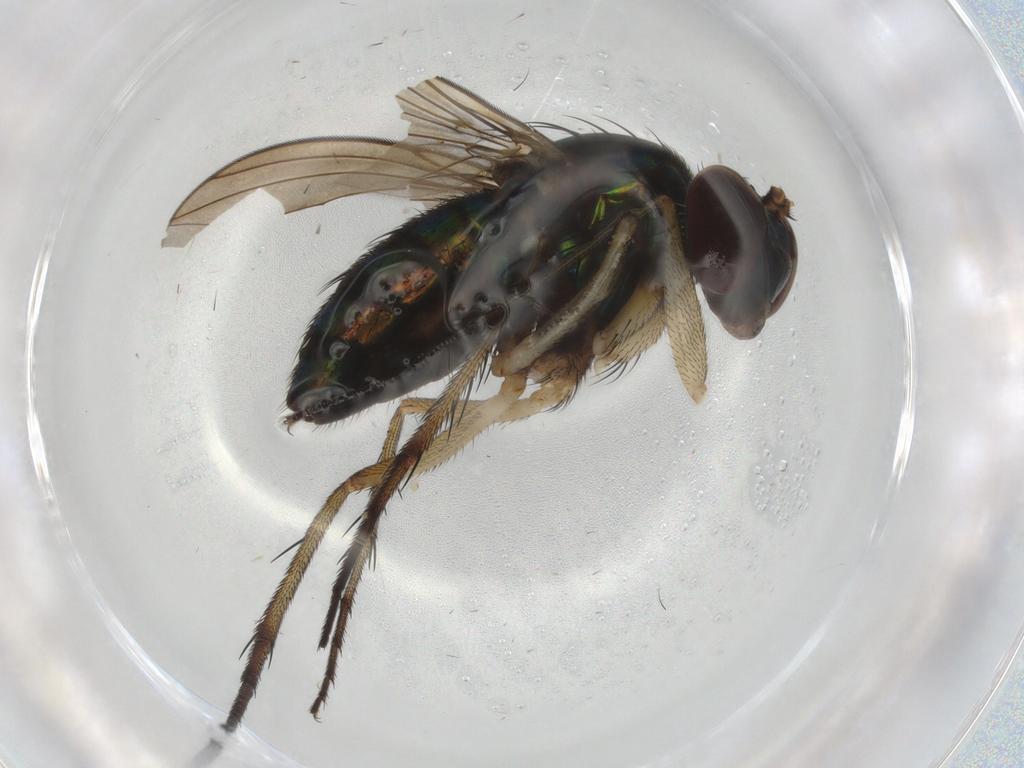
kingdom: Animalia
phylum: Arthropoda
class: Insecta
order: Diptera
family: Dolichopodidae
